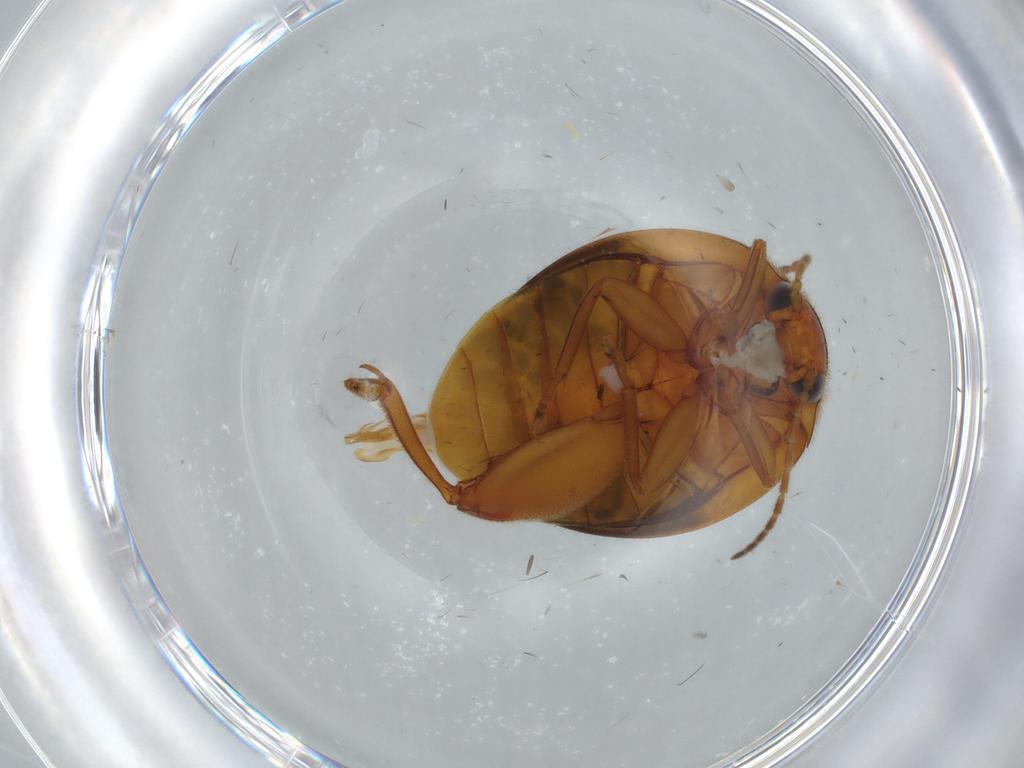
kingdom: Animalia
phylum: Arthropoda
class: Insecta
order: Coleoptera
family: Scirtidae
